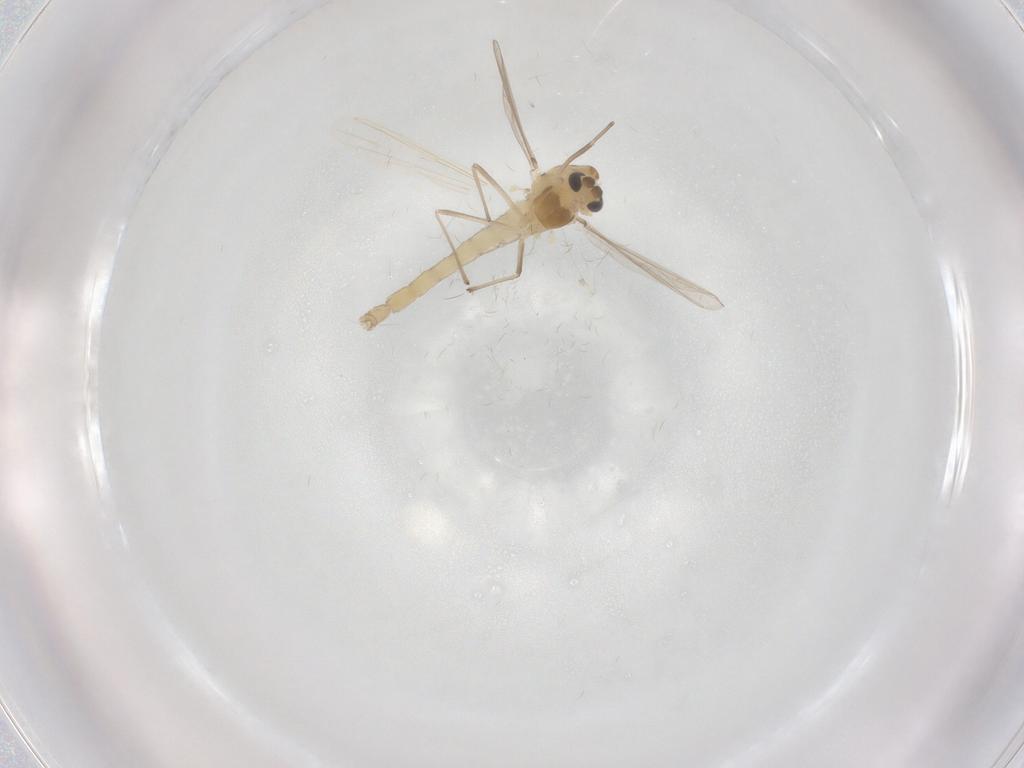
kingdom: Animalia
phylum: Arthropoda
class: Insecta
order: Diptera
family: Chironomidae
